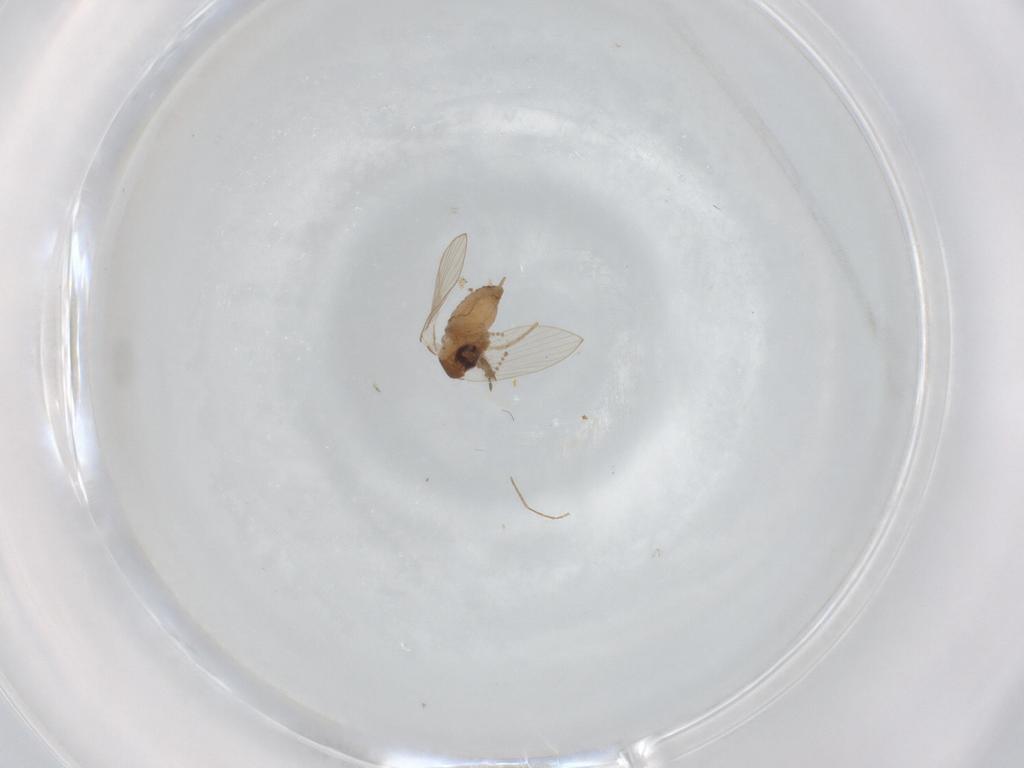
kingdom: Animalia
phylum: Arthropoda
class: Insecta
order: Diptera
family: Psychodidae
